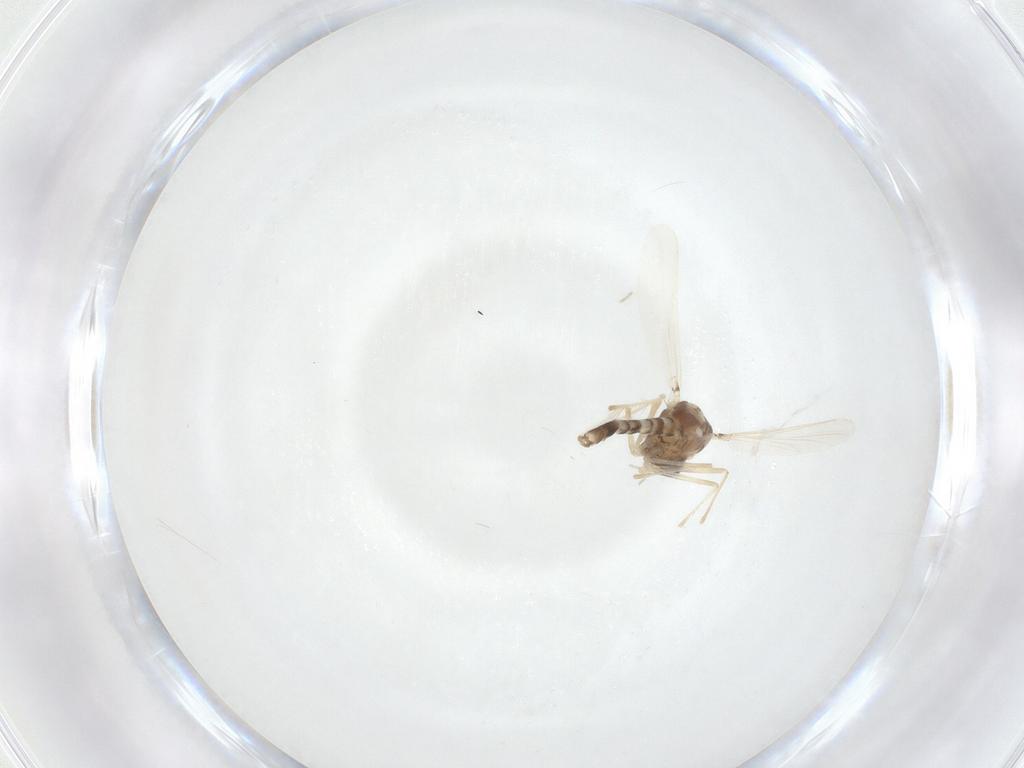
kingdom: Animalia
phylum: Arthropoda
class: Insecta
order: Diptera
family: Chironomidae
